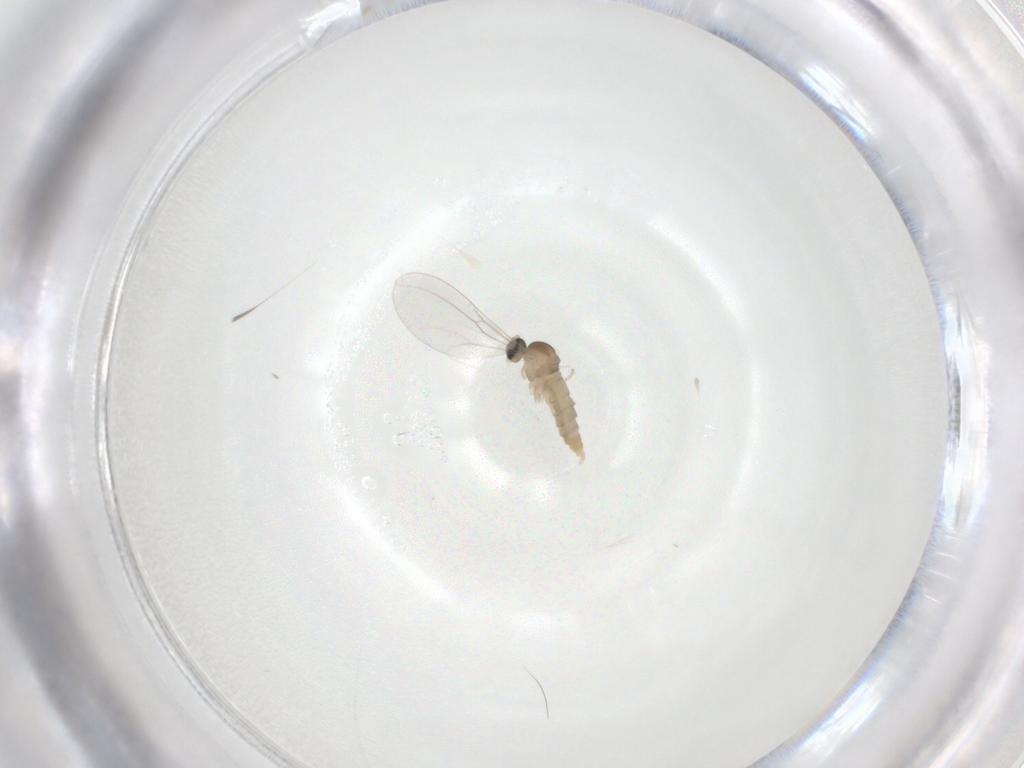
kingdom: Animalia
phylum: Arthropoda
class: Insecta
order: Diptera
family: Cecidomyiidae
